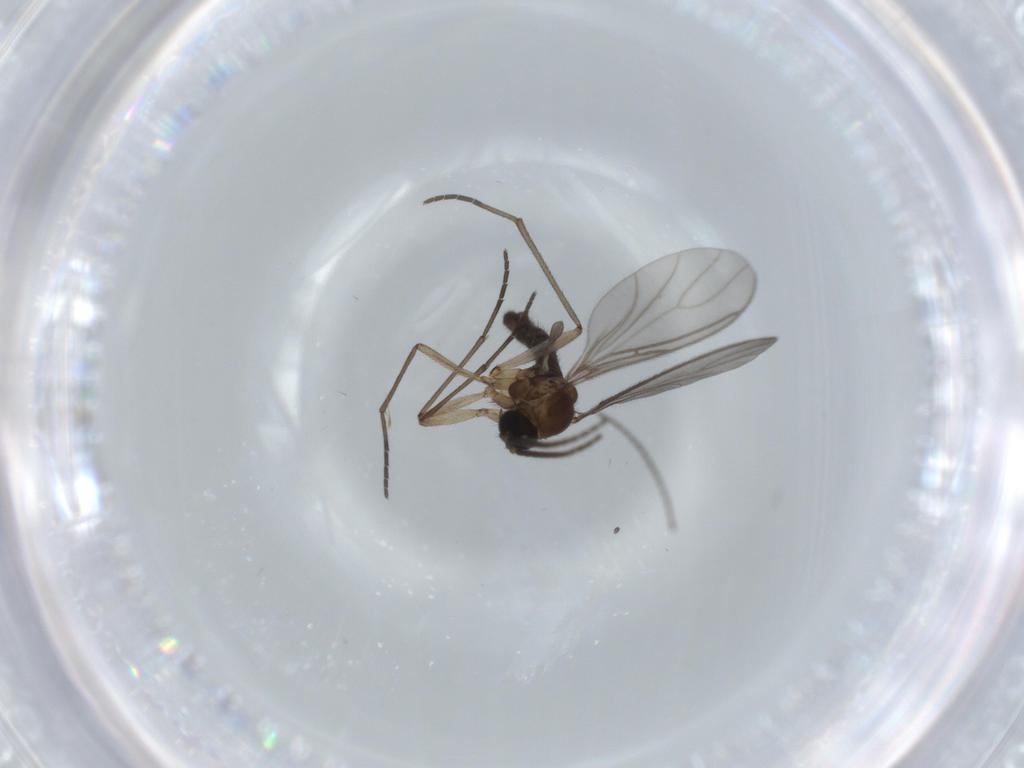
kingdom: Animalia
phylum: Arthropoda
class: Insecta
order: Diptera
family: Sciaridae
